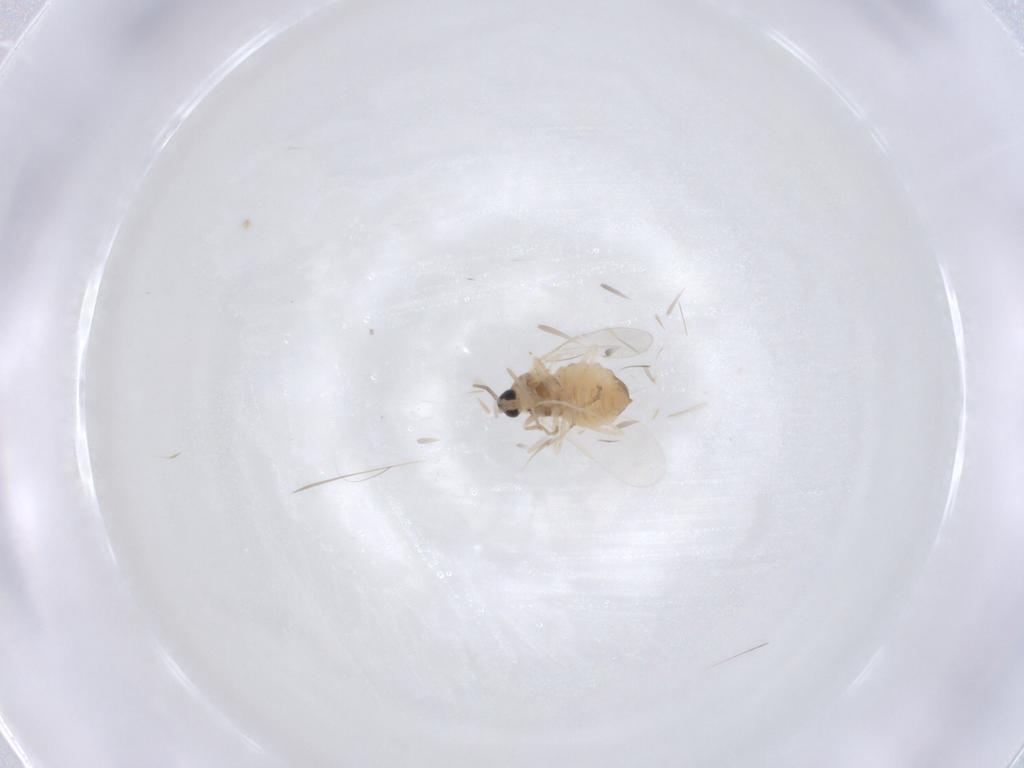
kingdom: Animalia
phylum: Arthropoda
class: Insecta
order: Diptera
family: Cecidomyiidae
